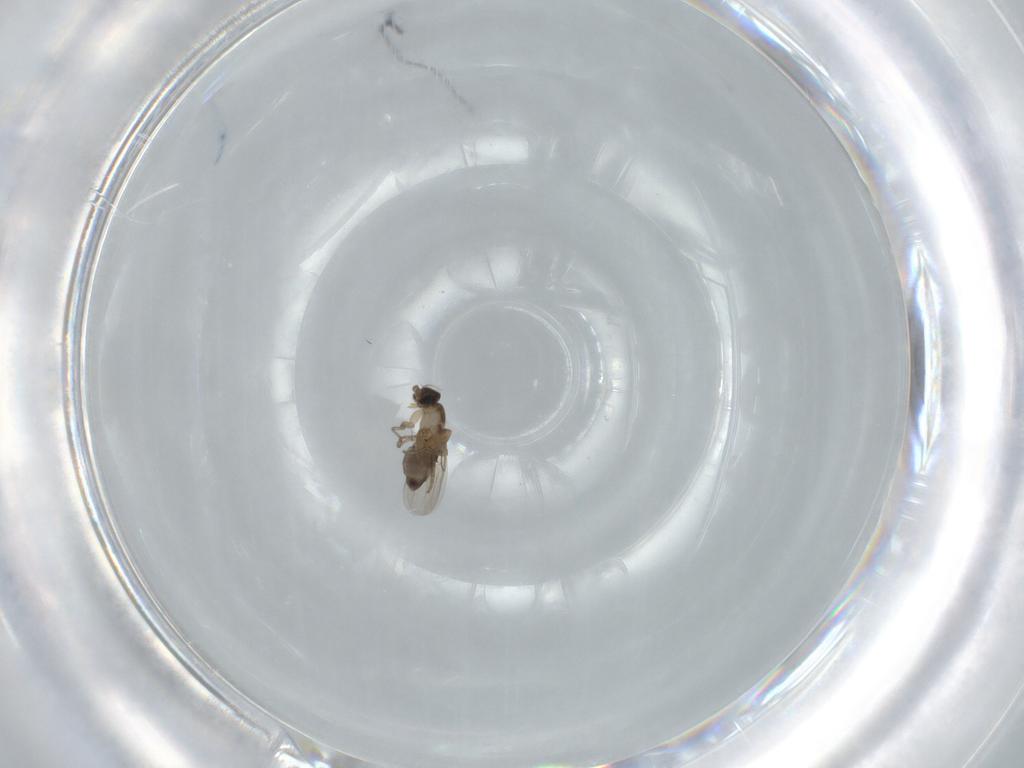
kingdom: Animalia
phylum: Arthropoda
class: Insecta
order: Diptera
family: Phoridae
